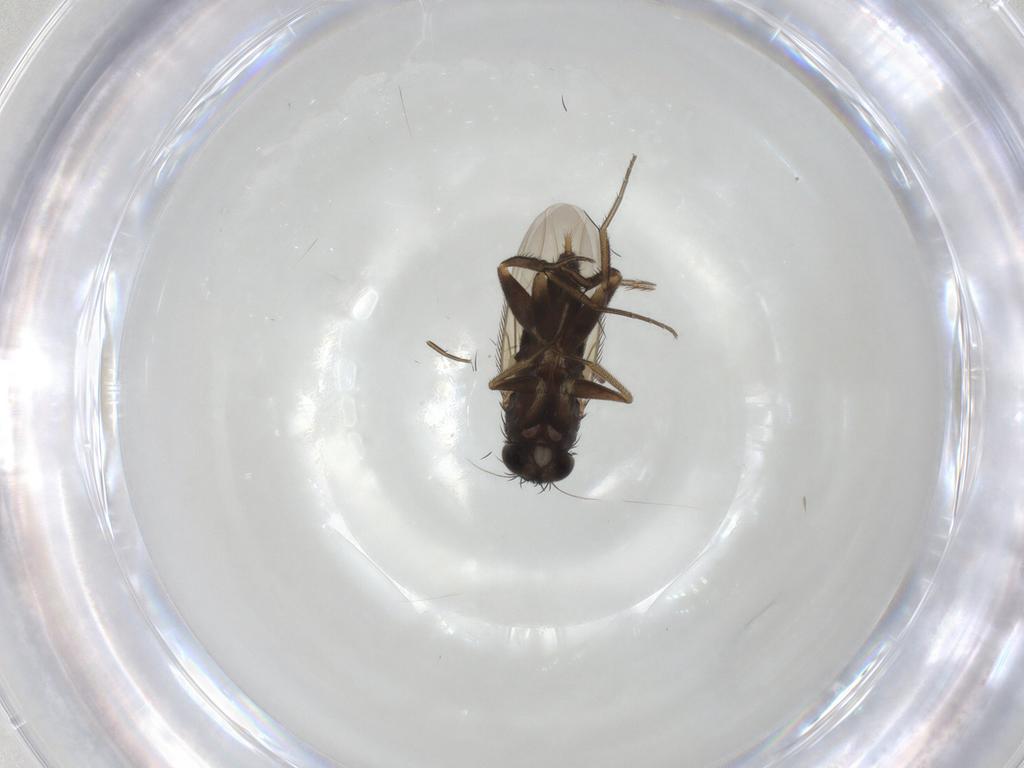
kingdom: Animalia
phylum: Arthropoda
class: Insecta
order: Diptera
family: Phoridae
